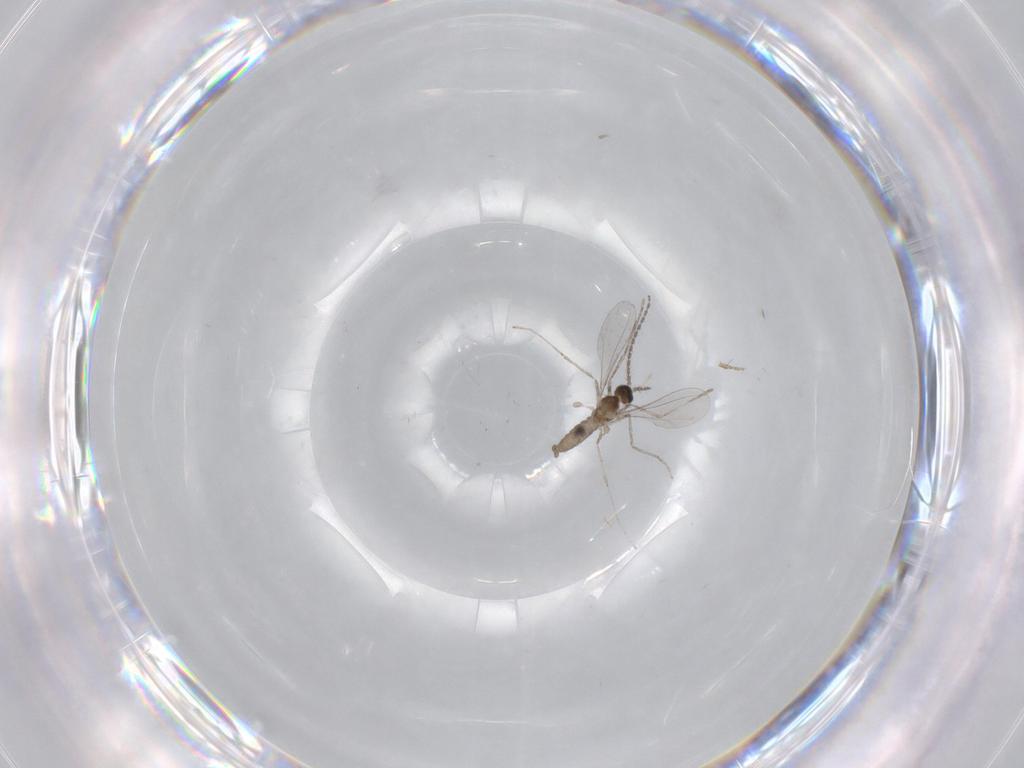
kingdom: Animalia
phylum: Arthropoda
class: Insecta
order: Diptera
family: Phoridae
